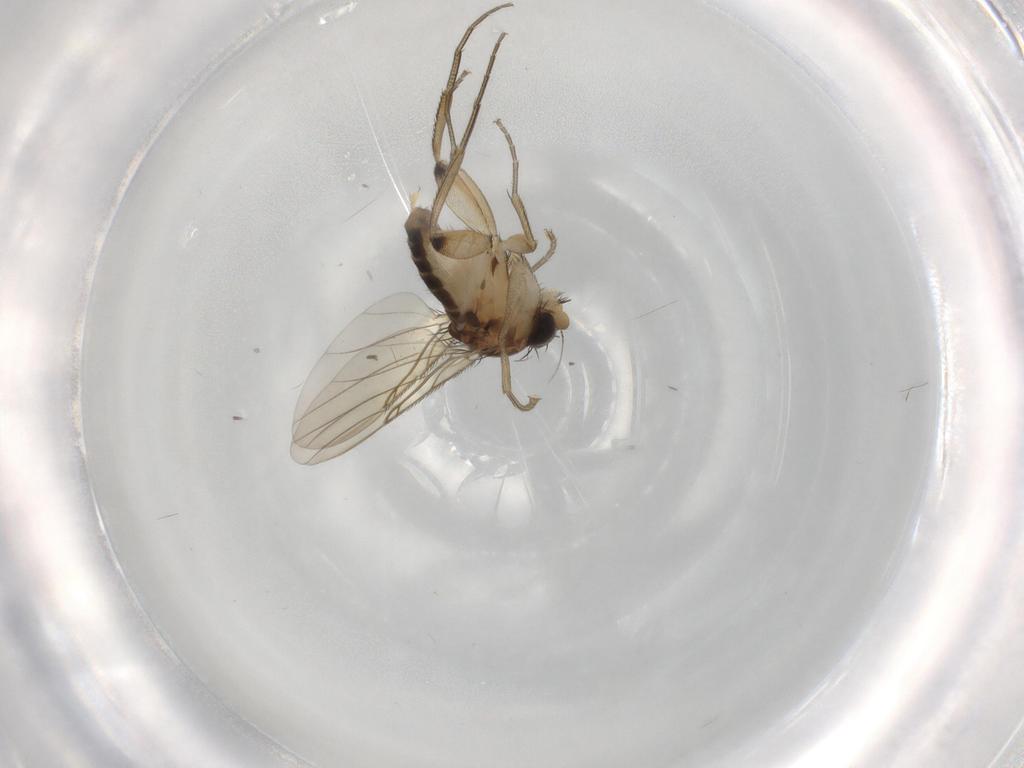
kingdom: Animalia
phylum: Arthropoda
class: Insecta
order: Diptera
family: Phoridae
